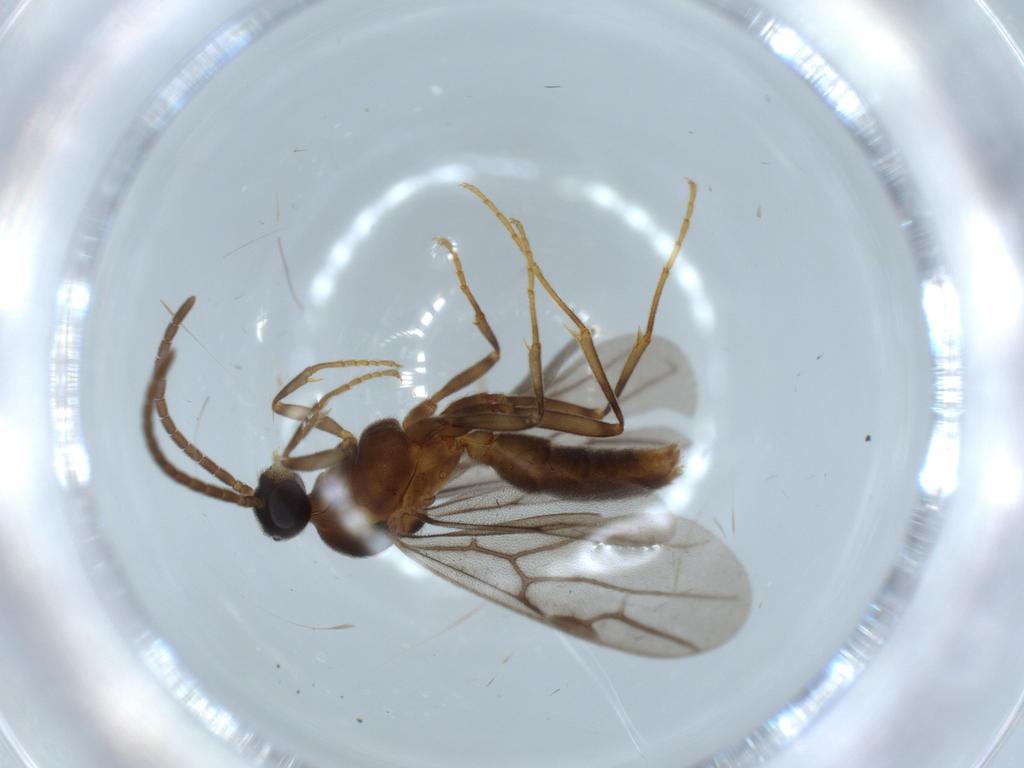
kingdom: Animalia
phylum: Arthropoda
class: Insecta
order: Hymenoptera
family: Formicidae
